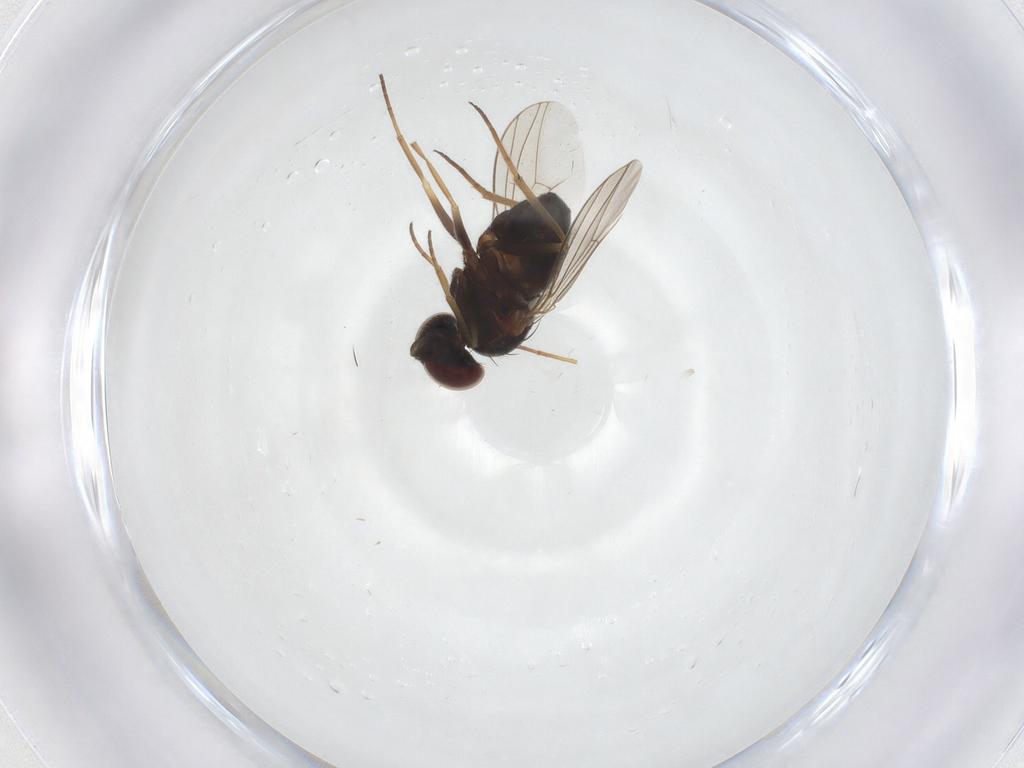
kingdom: Animalia
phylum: Arthropoda
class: Insecta
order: Diptera
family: Dolichopodidae
